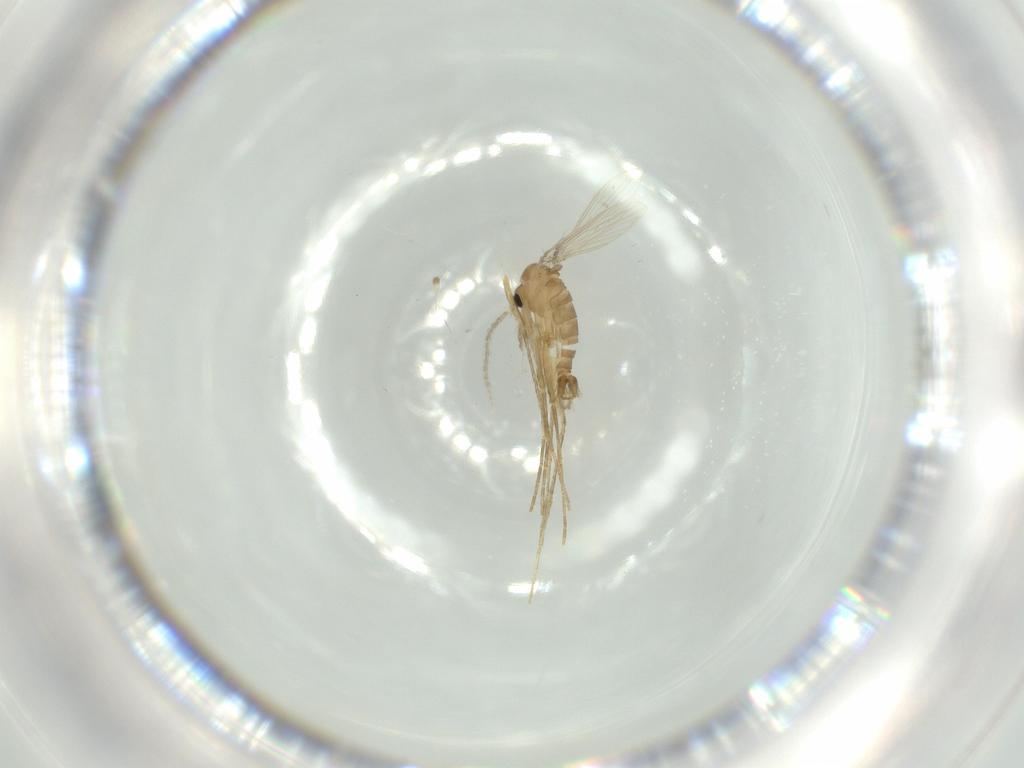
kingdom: Animalia
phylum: Arthropoda
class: Insecta
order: Diptera
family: Psychodidae
